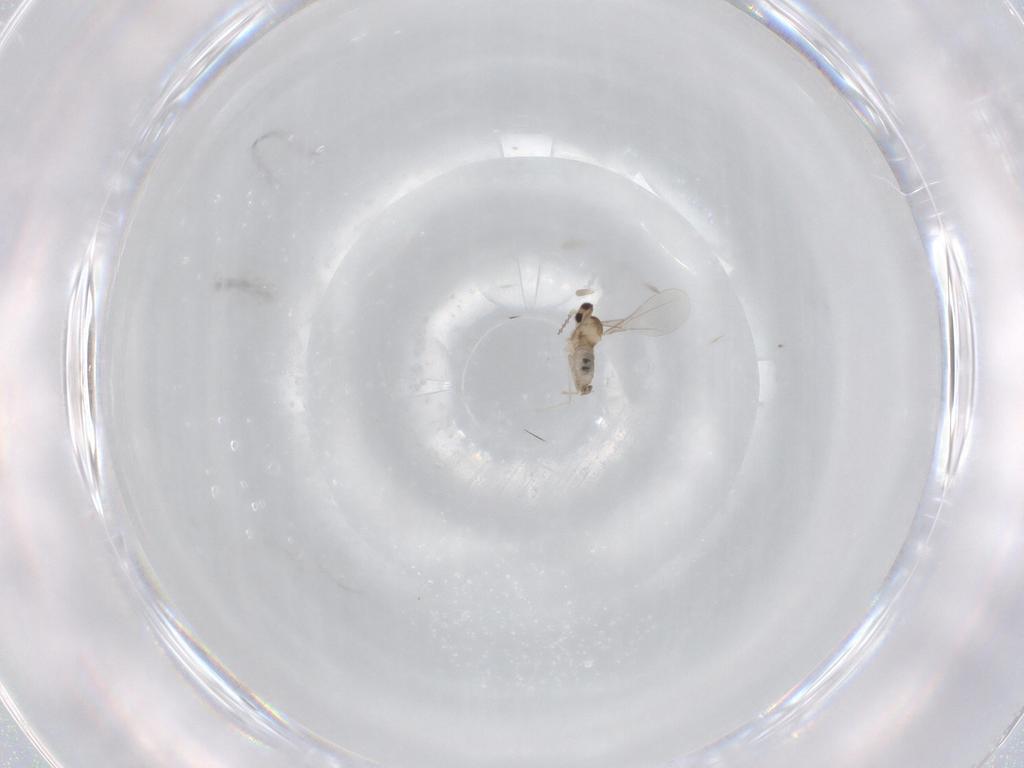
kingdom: Animalia
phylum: Arthropoda
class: Insecta
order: Diptera
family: Cecidomyiidae
